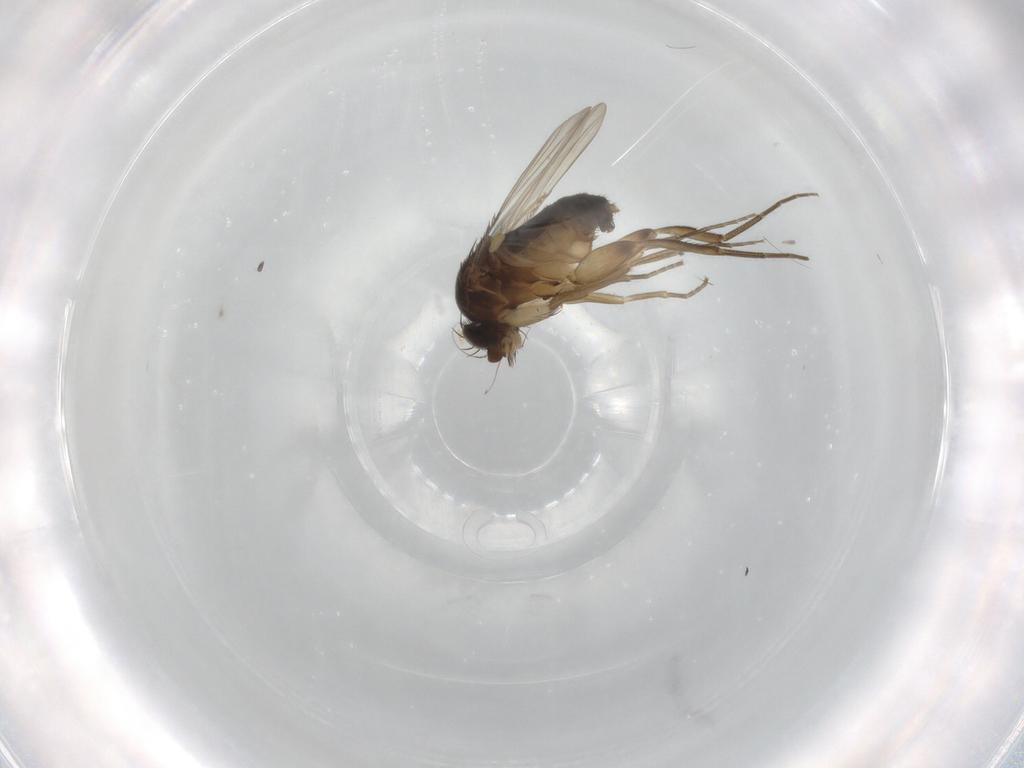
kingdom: Animalia
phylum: Arthropoda
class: Insecta
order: Diptera
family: Phoridae
